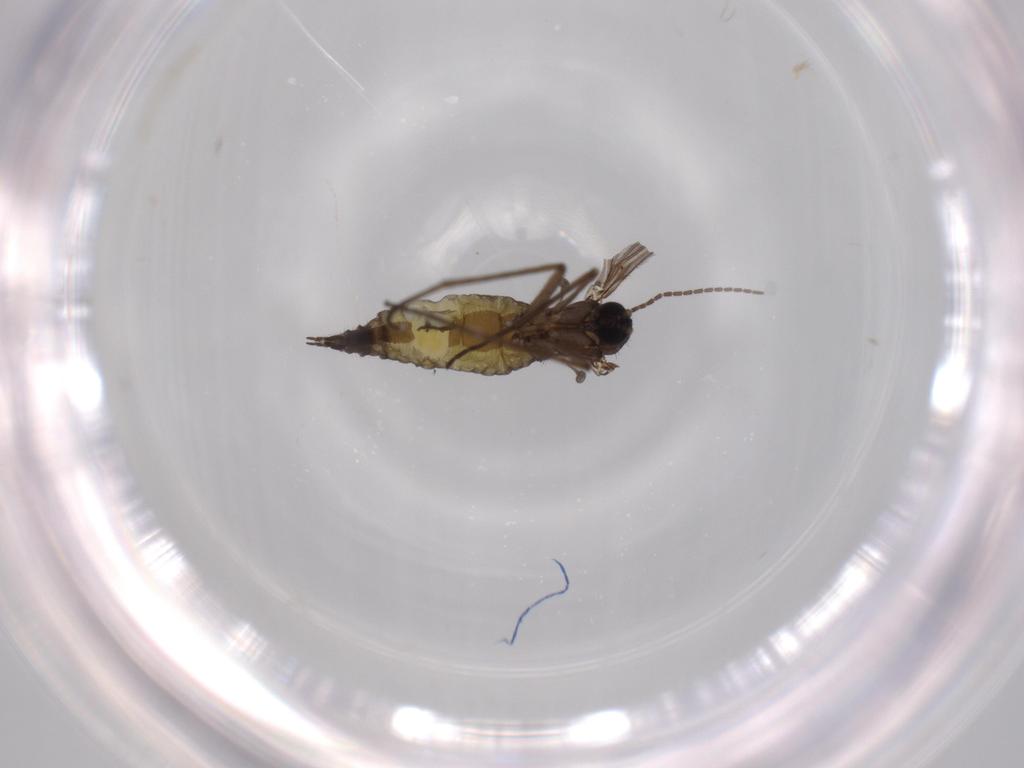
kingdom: Animalia
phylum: Arthropoda
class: Insecta
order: Diptera
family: Sciaridae
